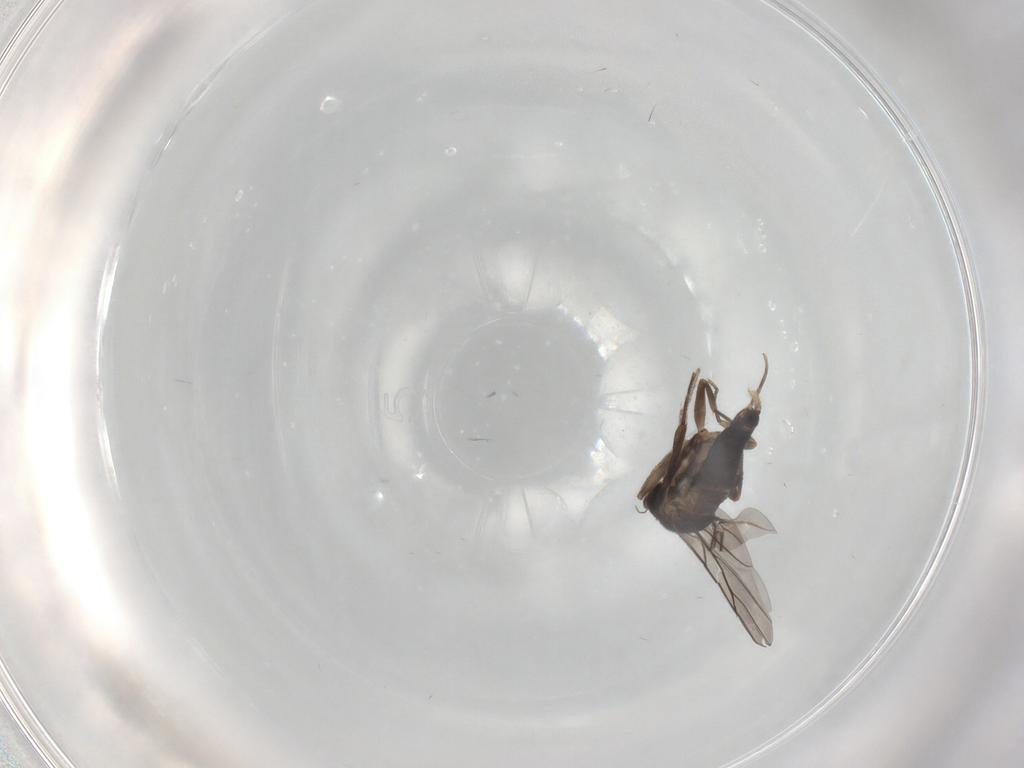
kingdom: Animalia
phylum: Arthropoda
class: Insecta
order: Diptera
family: Phoridae
